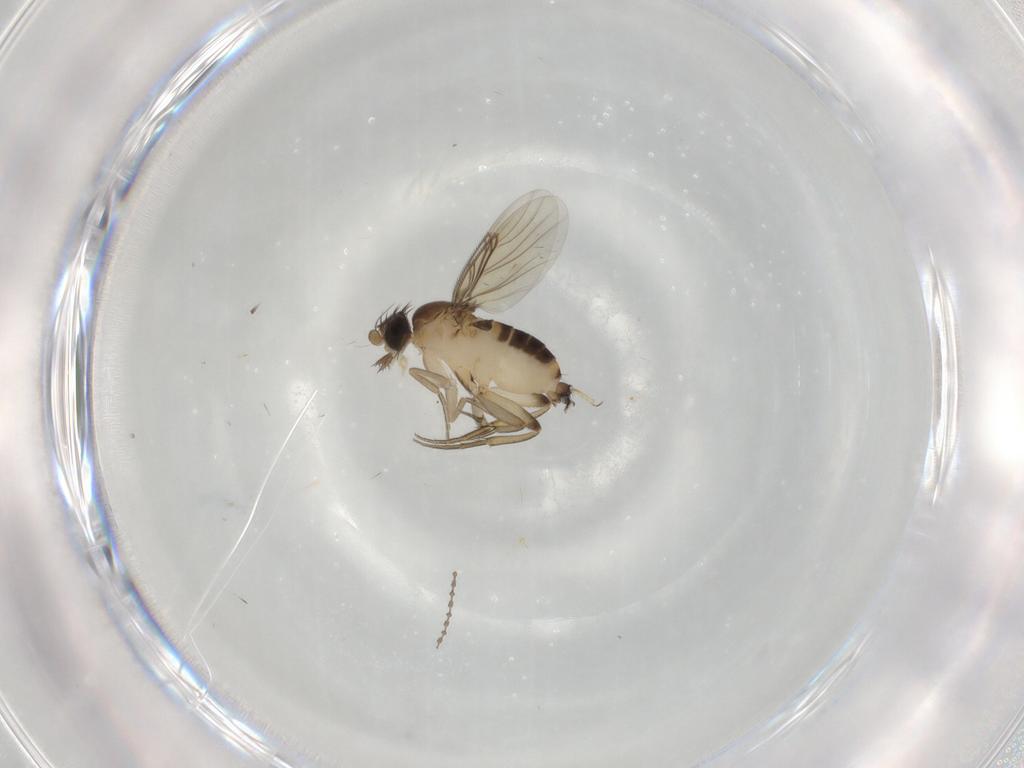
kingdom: Animalia
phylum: Arthropoda
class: Insecta
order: Diptera
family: Phoridae
